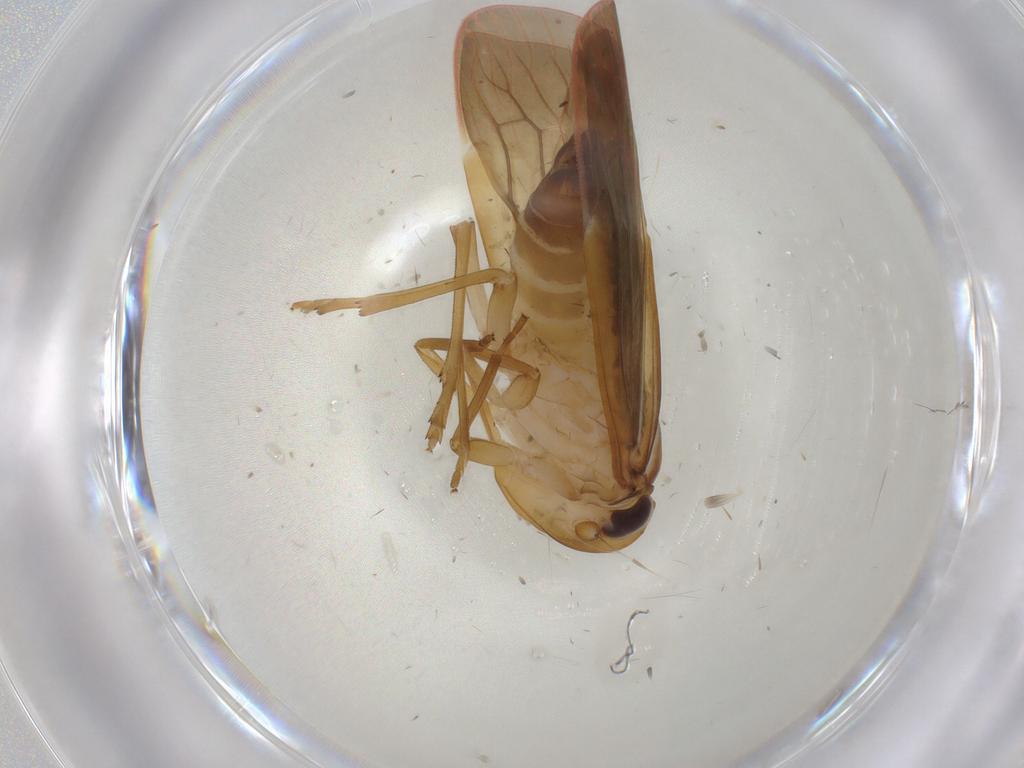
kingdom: Animalia
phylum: Arthropoda
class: Insecta
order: Hemiptera
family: Achilidae
